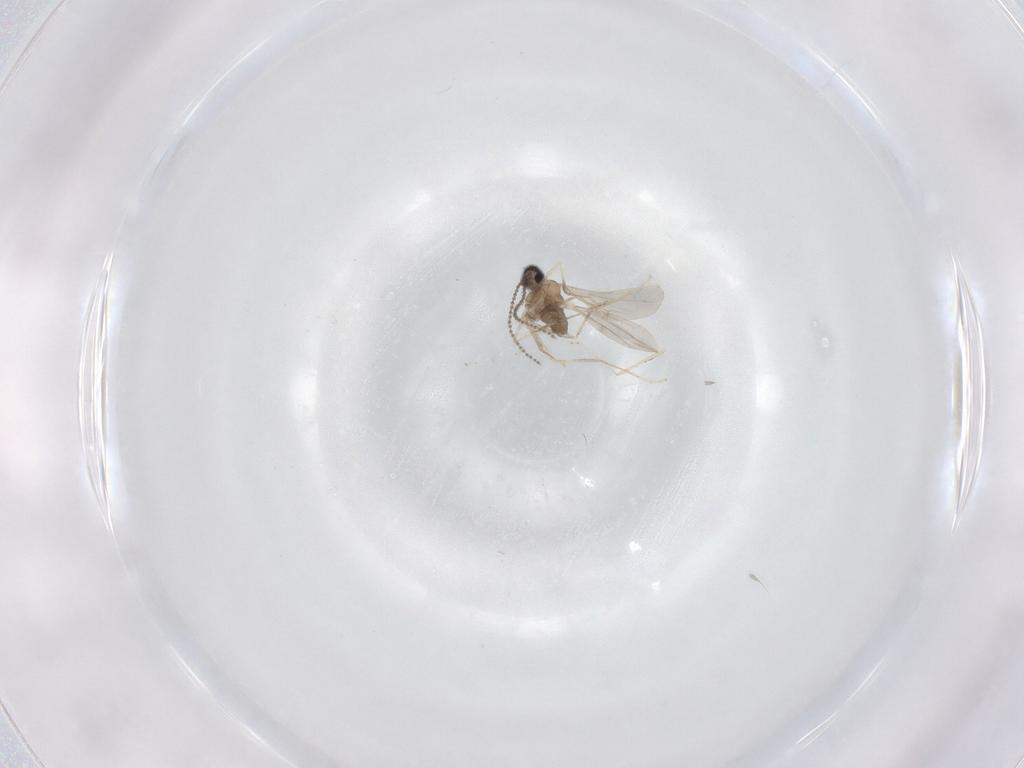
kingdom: Animalia
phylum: Arthropoda
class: Insecta
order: Diptera
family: Cecidomyiidae
